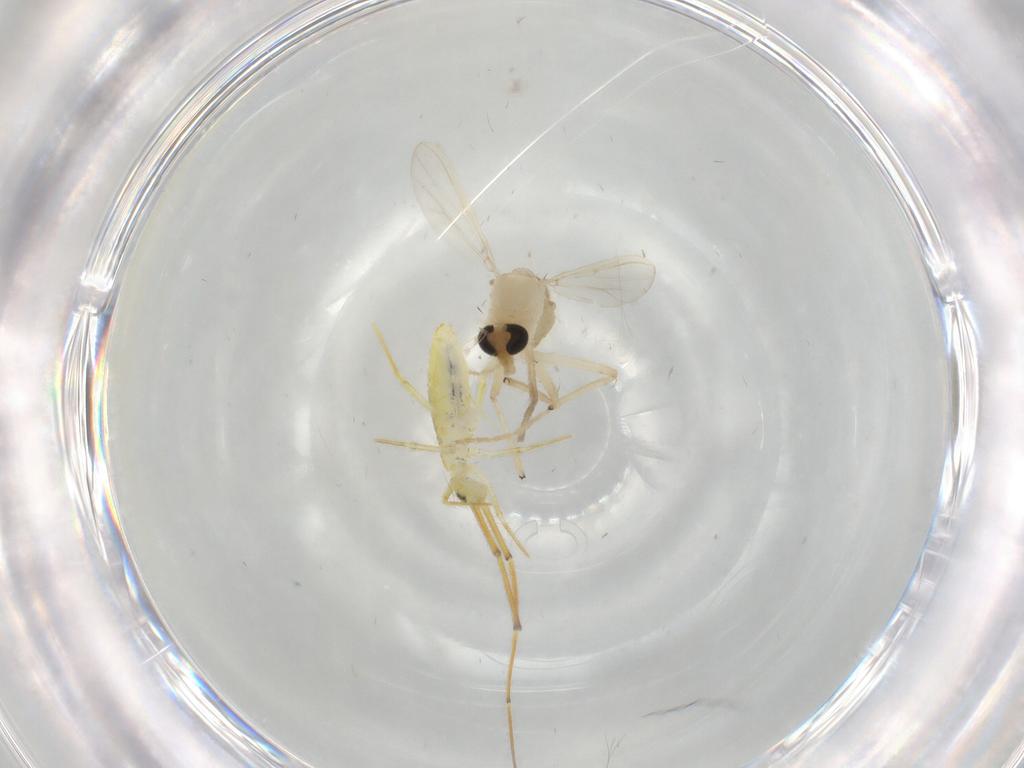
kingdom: Animalia
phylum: Arthropoda
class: Insecta
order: Diptera
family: Chironomidae
